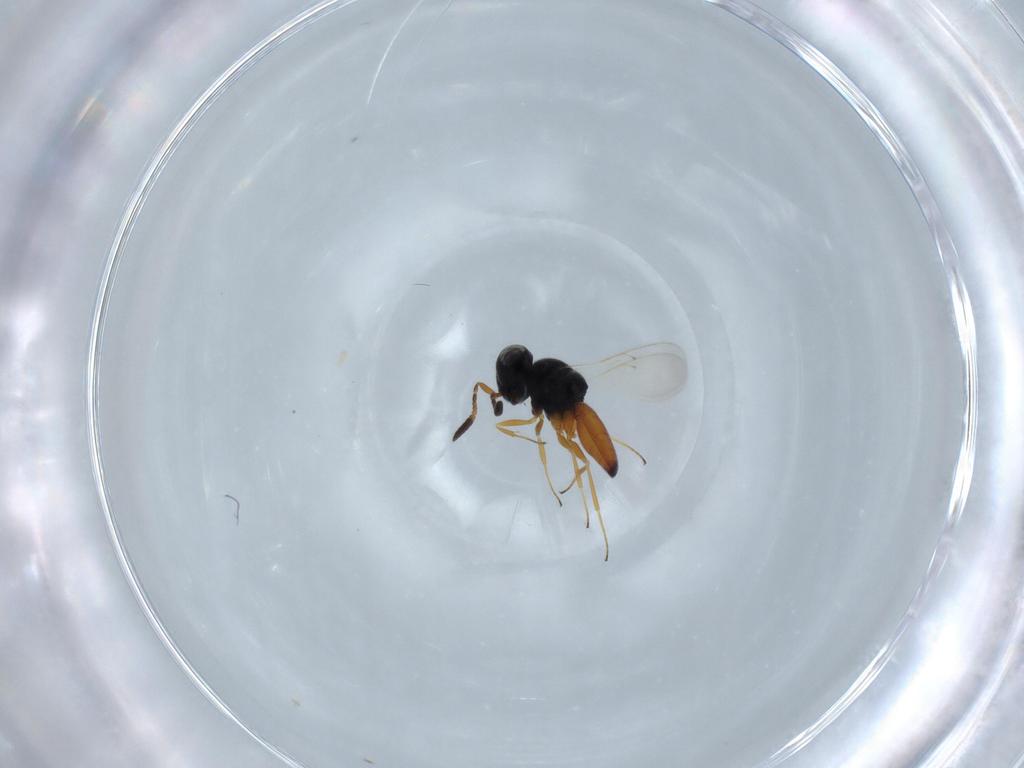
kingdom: Animalia
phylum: Arthropoda
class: Insecta
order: Hymenoptera
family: Scelionidae
